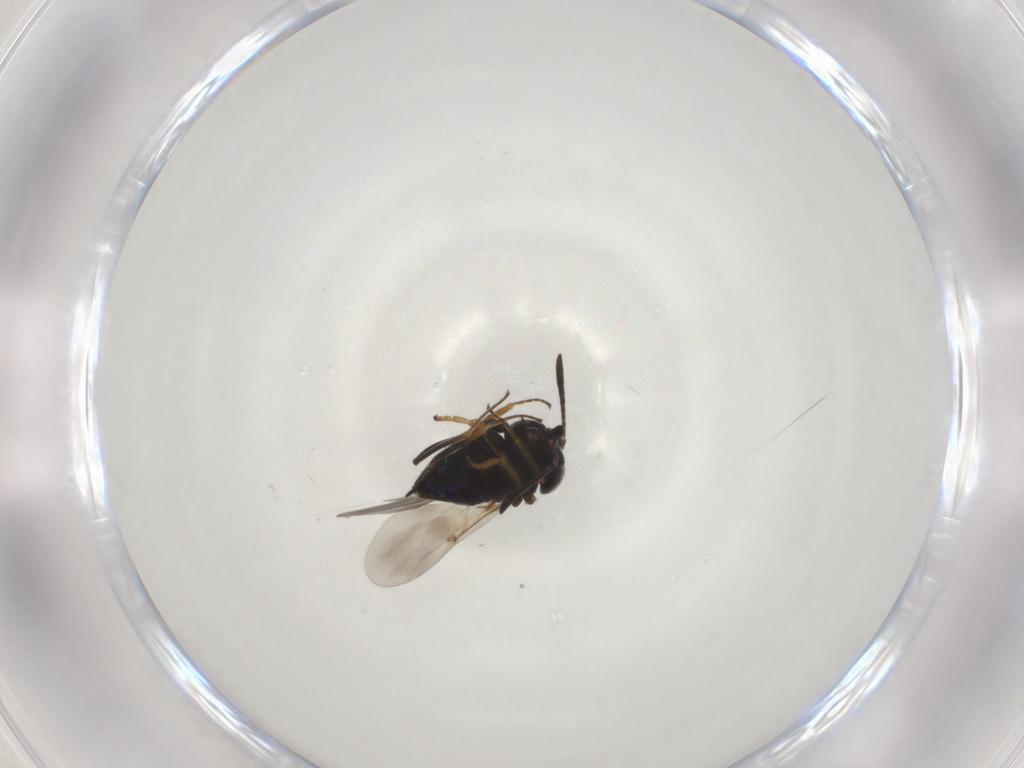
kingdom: Animalia
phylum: Arthropoda
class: Insecta
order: Hymenoptera
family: Encyrtidae
